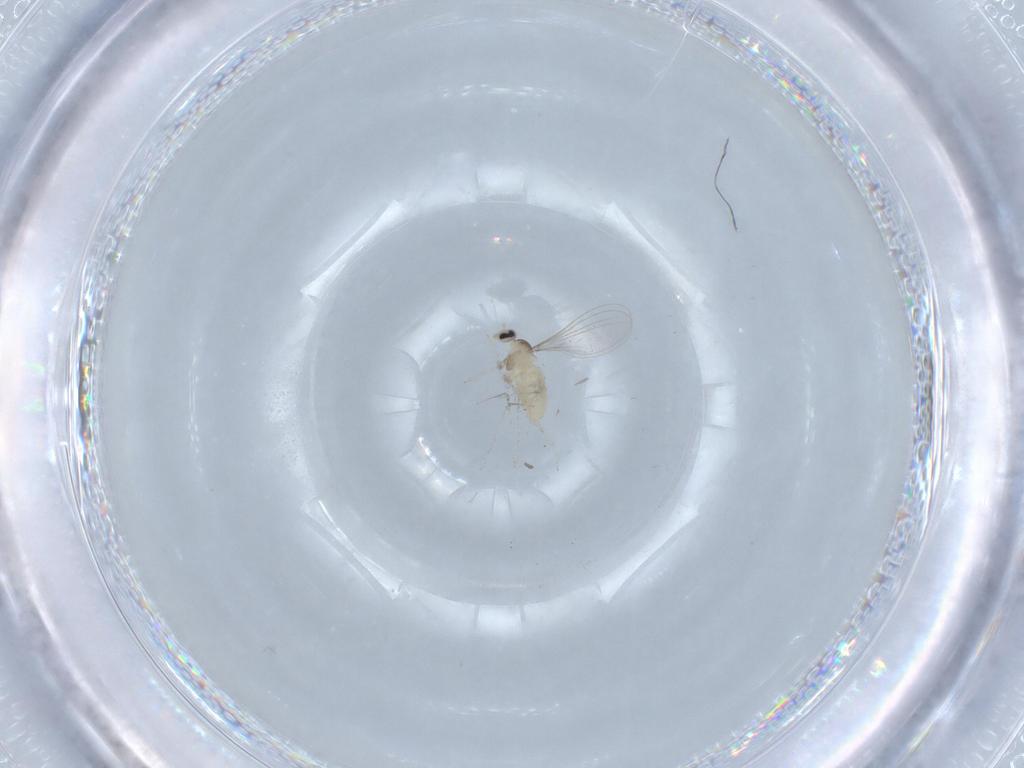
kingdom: Animalia
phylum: Arthropoda
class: Insecta
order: Diptera
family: Cecidomyiidae
